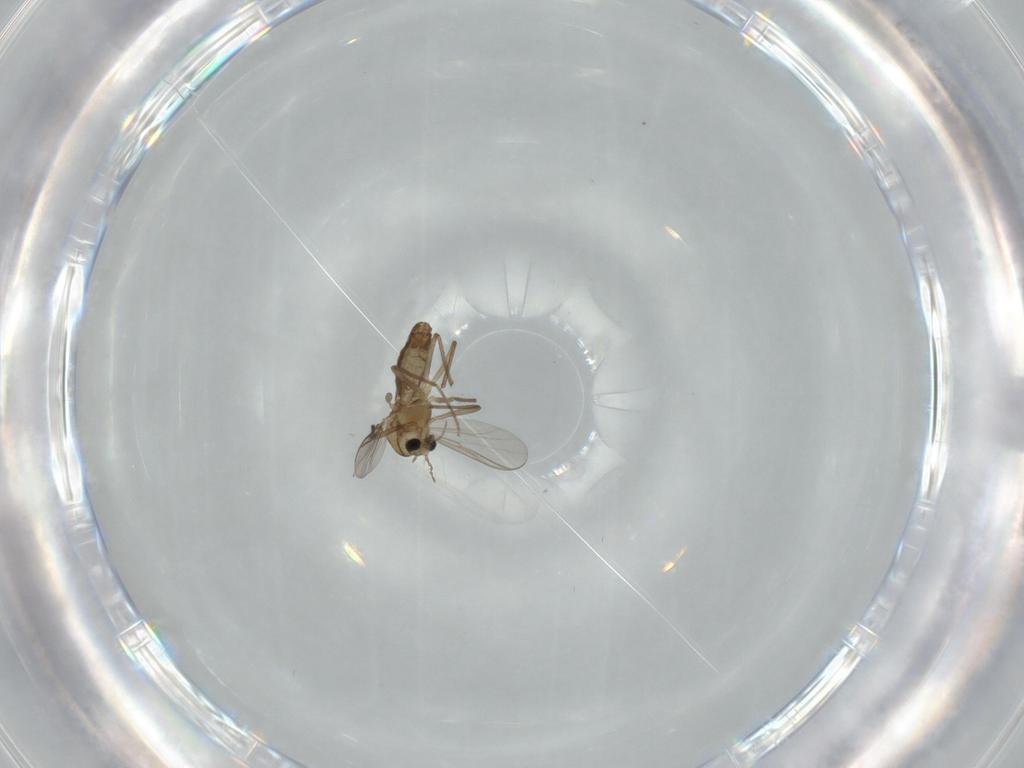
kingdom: Animalia
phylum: Arthropoda
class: Insecta
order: Diptera
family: Chironomidae
